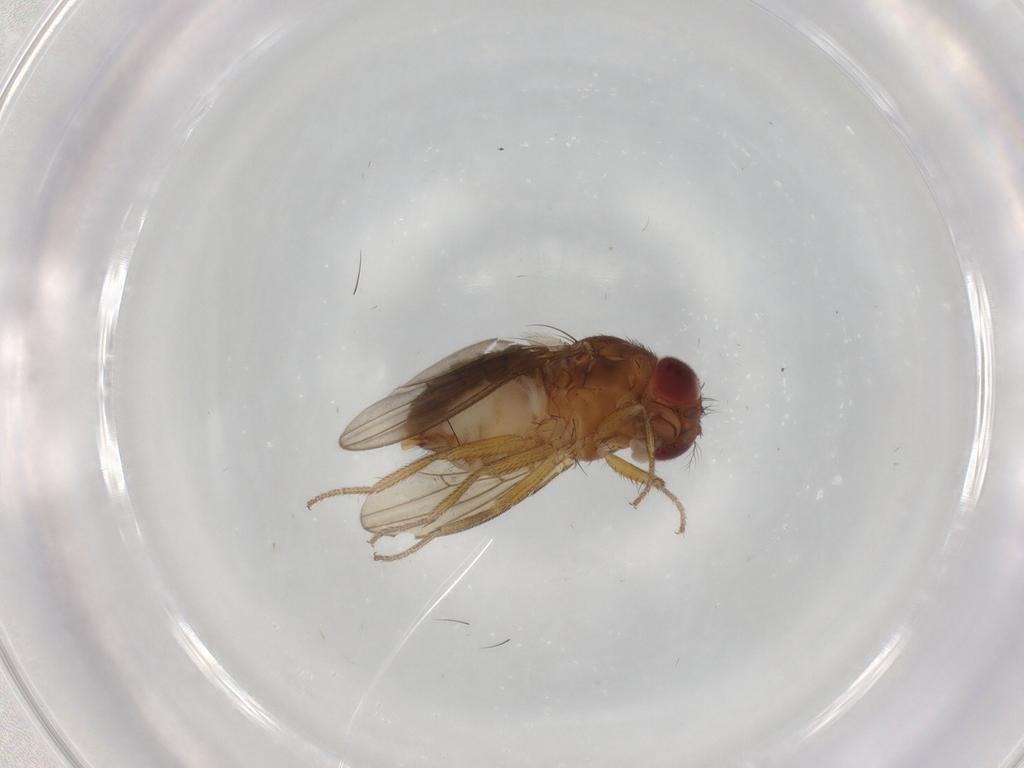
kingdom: Animalia
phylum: Arthropoda
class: Insecta
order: Diptera
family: Drosophilidae
